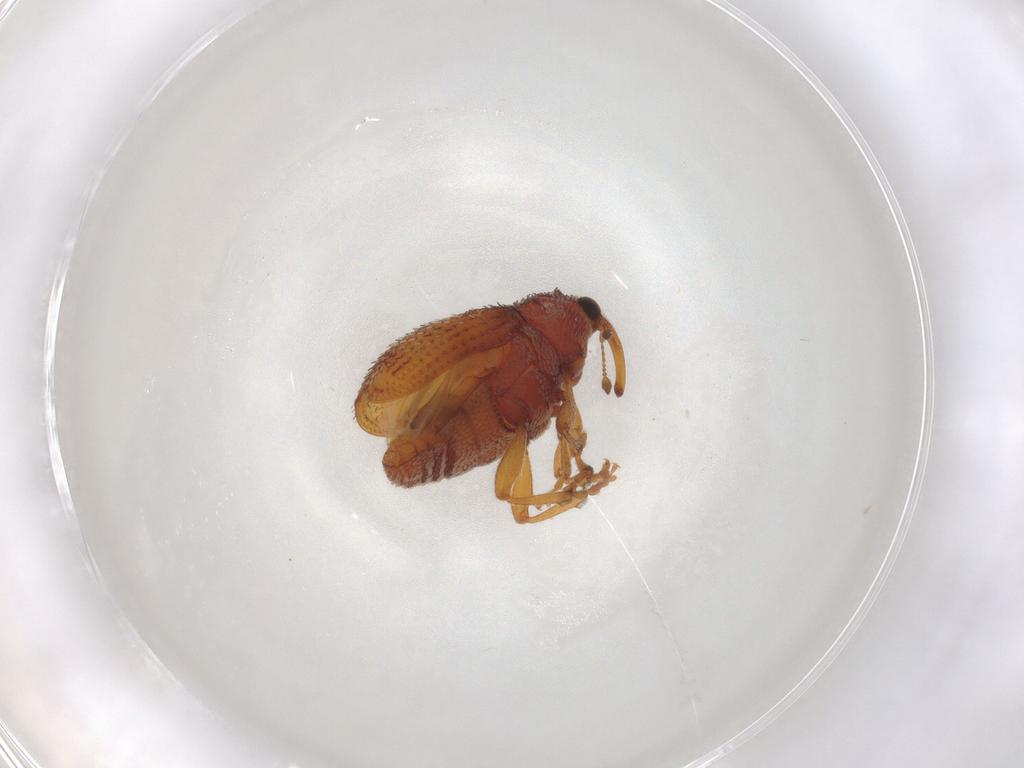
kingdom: Animalia
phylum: Arthropoda
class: Insecta
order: Coleoptera
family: Curculionidae
